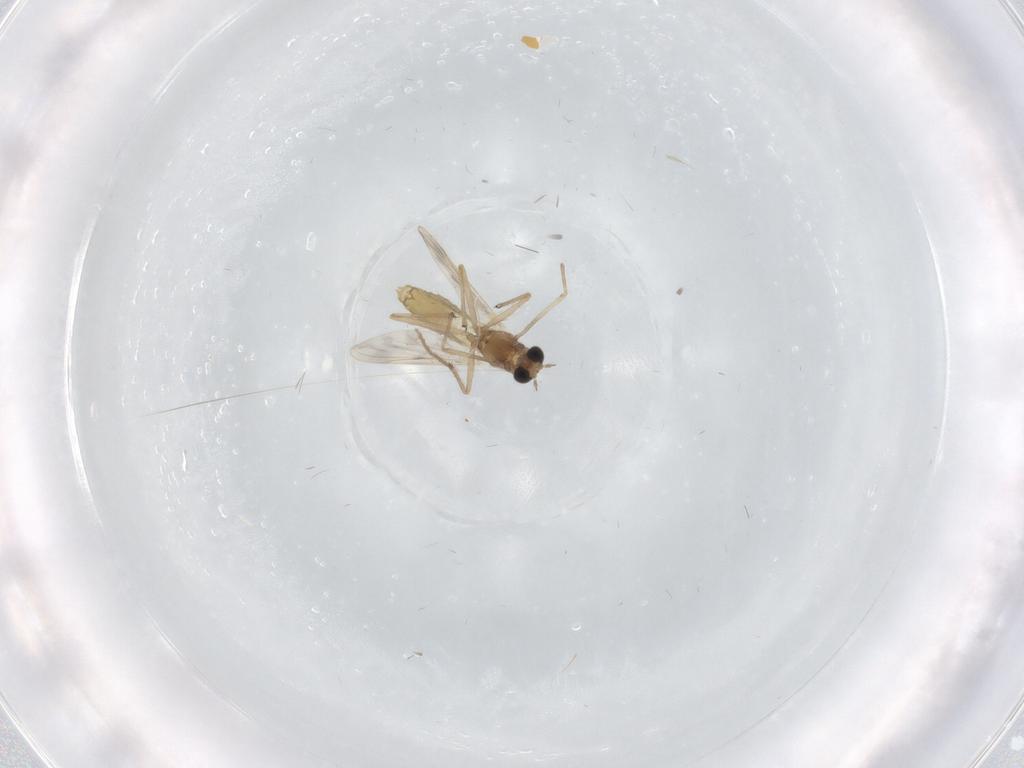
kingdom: Animalia
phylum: Arthropoda
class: Insecta
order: Diptera
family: Chironomidae
